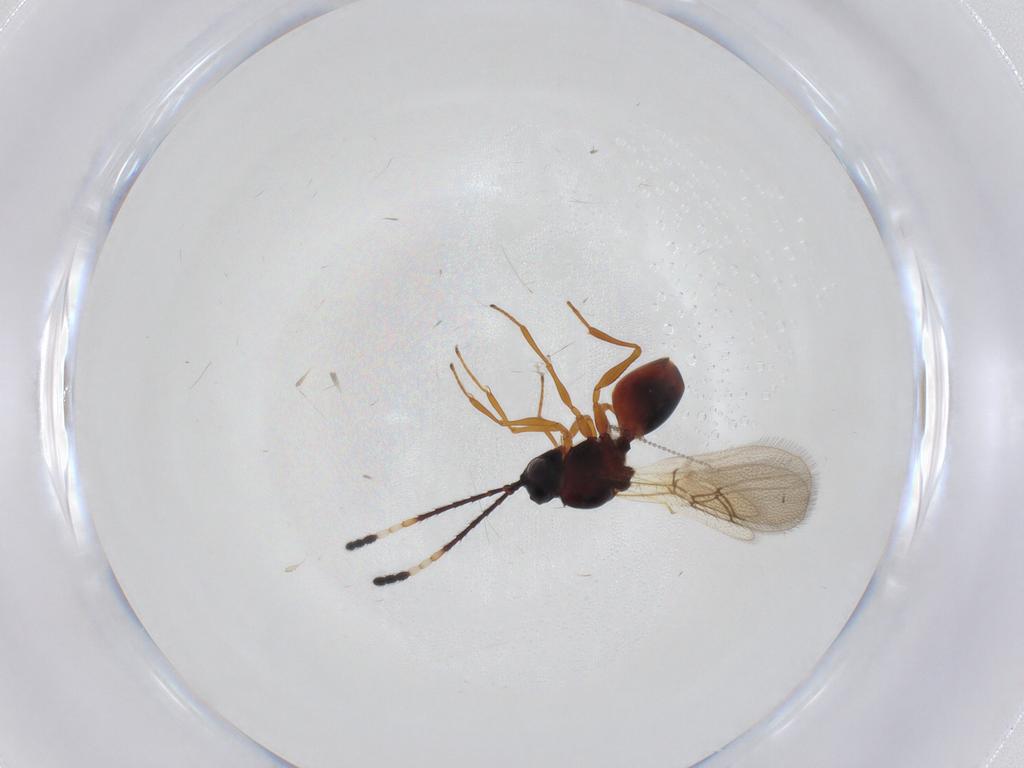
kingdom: Animalia
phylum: Arthropoda
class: Insecta
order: Hymenoptera
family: Figitidae
